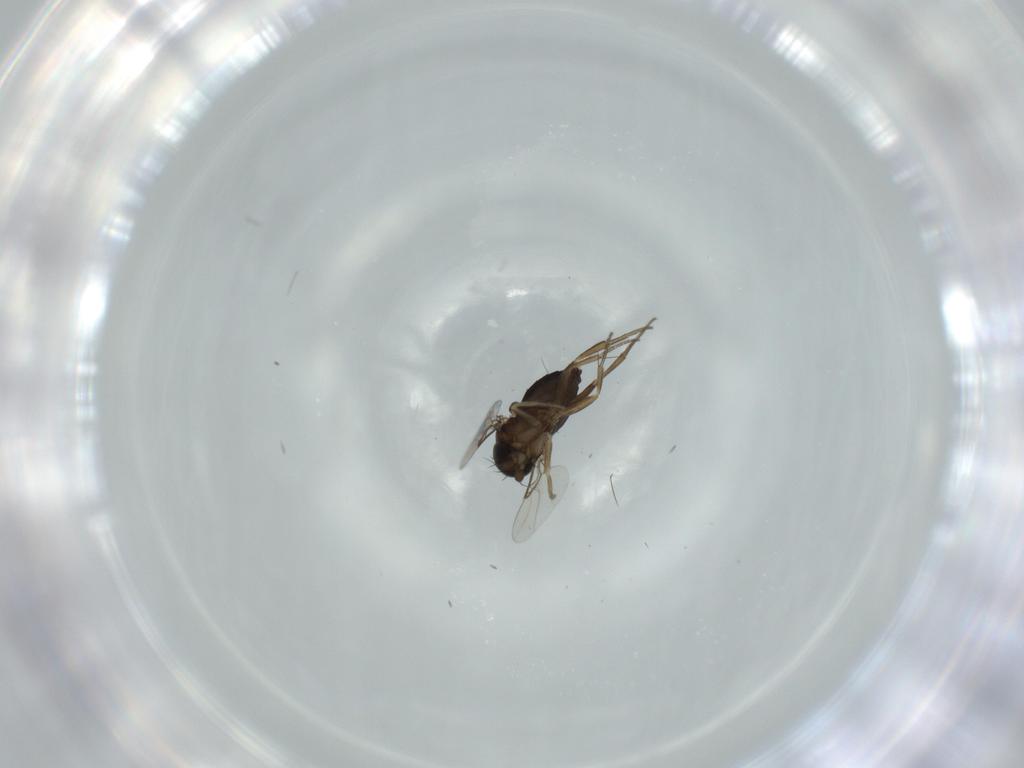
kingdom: Animalia
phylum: Arthropoda
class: Insecta
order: Diptera
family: Phoridae
